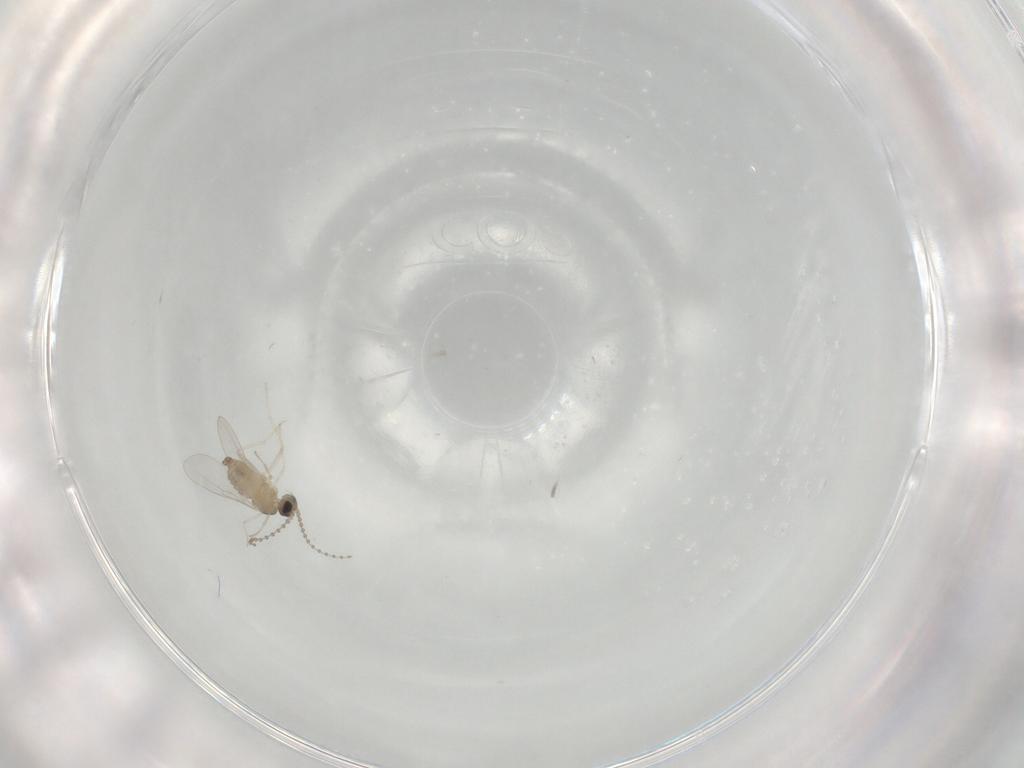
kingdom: Animalia
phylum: Arthropoda
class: Insecta
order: Diptera
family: Cecidomyiidae
